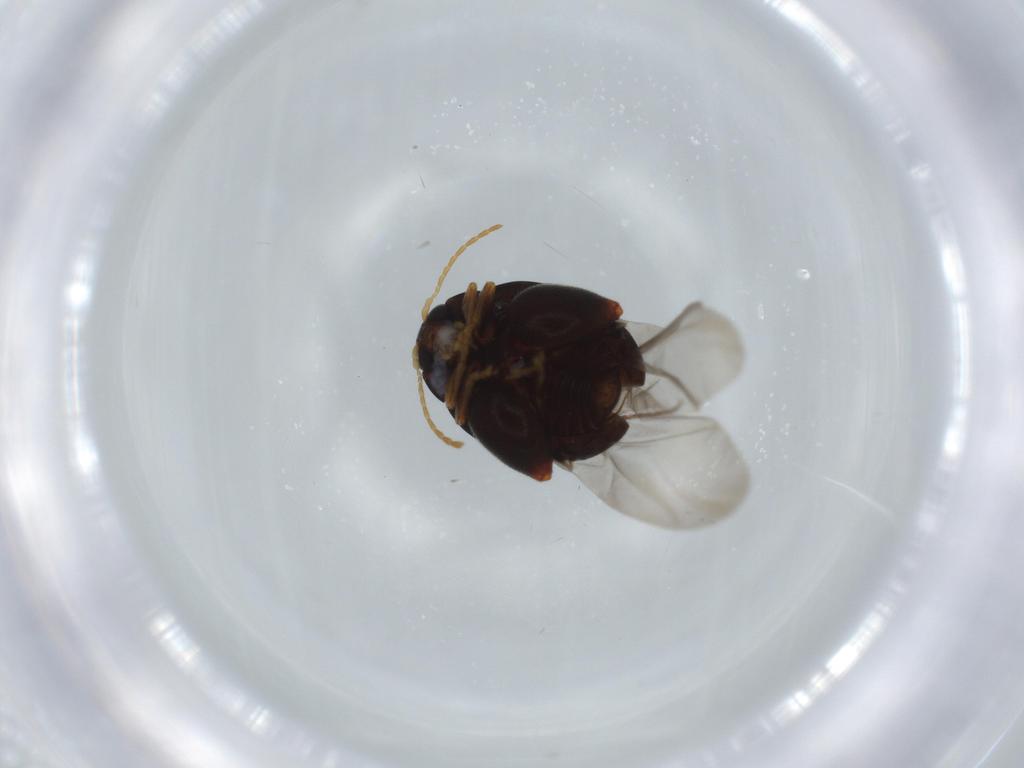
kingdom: Animalia
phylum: Arthropoda
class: Insecta
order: Coleoptera
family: Chrysomelidae
